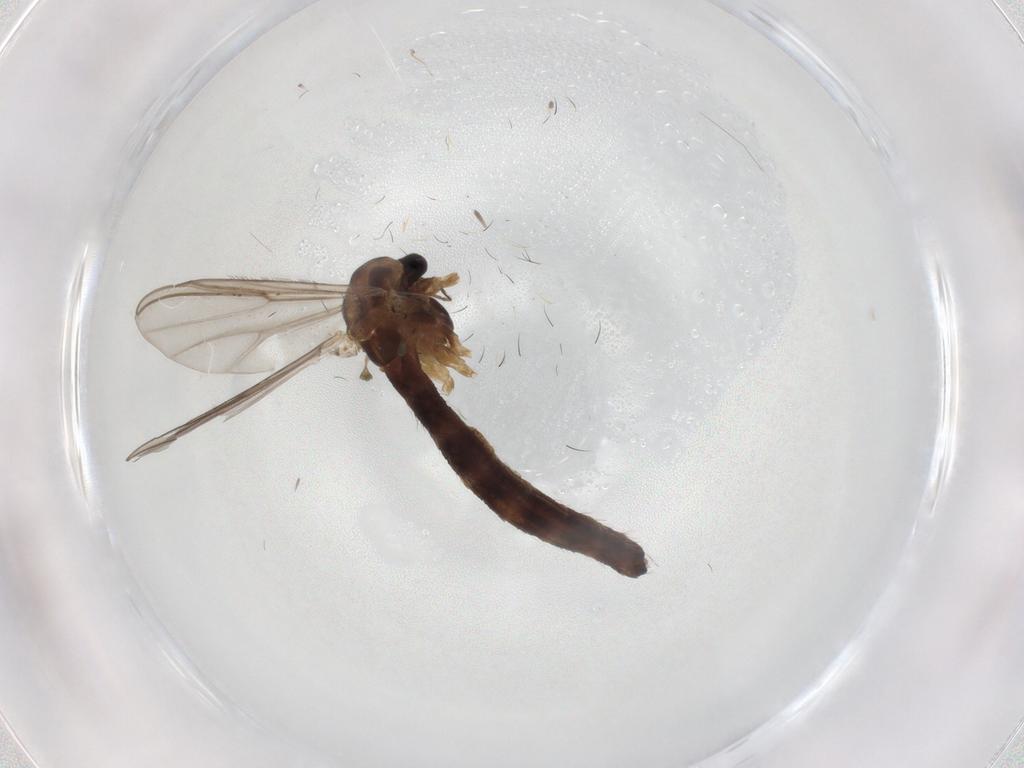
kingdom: Animalia
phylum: Arthropoda
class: Insecta
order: Diptera
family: Chironomidae
